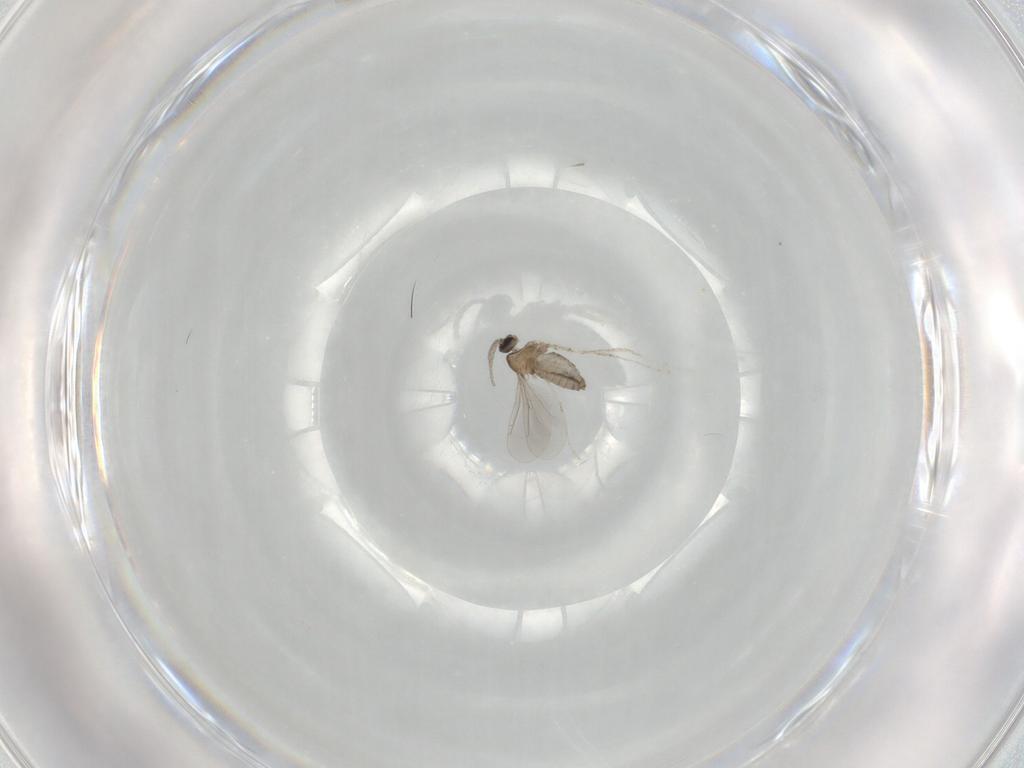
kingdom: Animalia
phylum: Arthropoda
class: Insecta
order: Diptera
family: Cecidomyiidae
